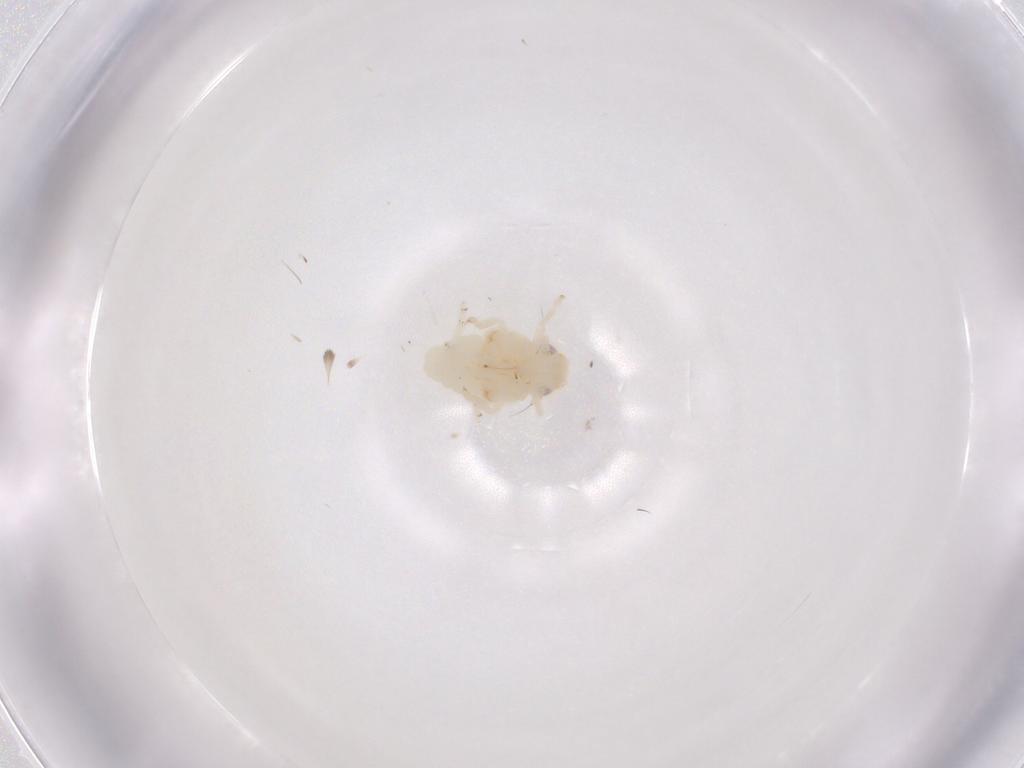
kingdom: Animalia
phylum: Arthropoda
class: Insecta
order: Hemiptera
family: Nogodinidae
